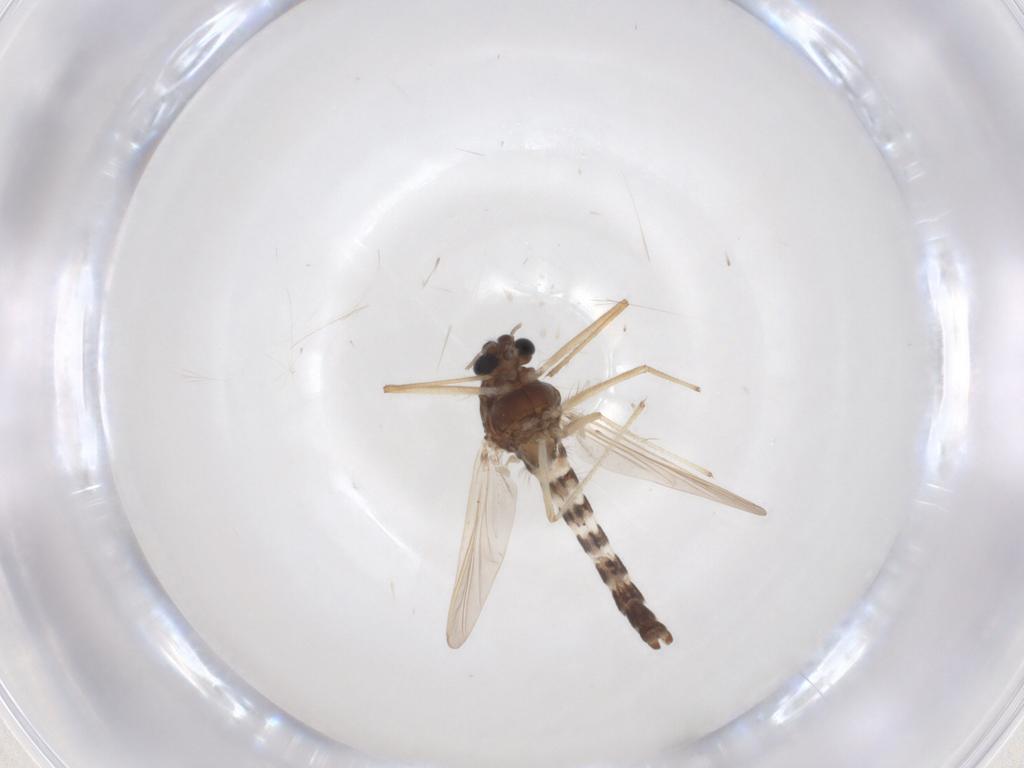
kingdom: Animalia
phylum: Arthropoda
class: Insecta
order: Diptera
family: Chironomidae
